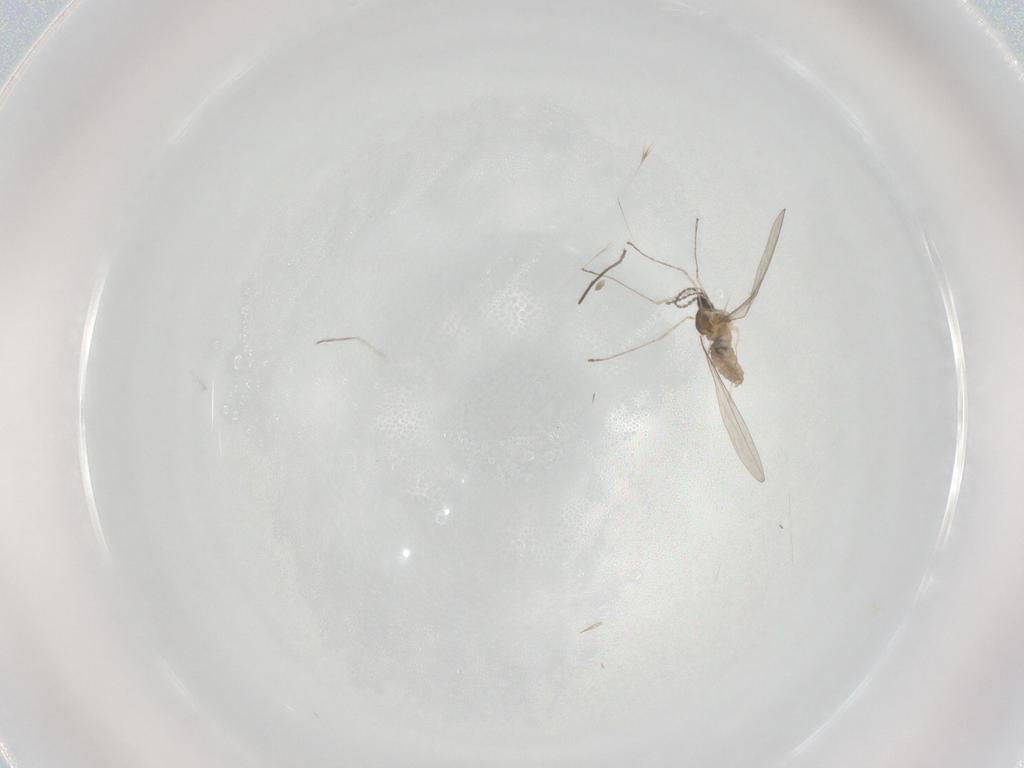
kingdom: Animalia
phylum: Arthropoda
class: Insecta
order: Diptera
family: Cecidomyiidae
